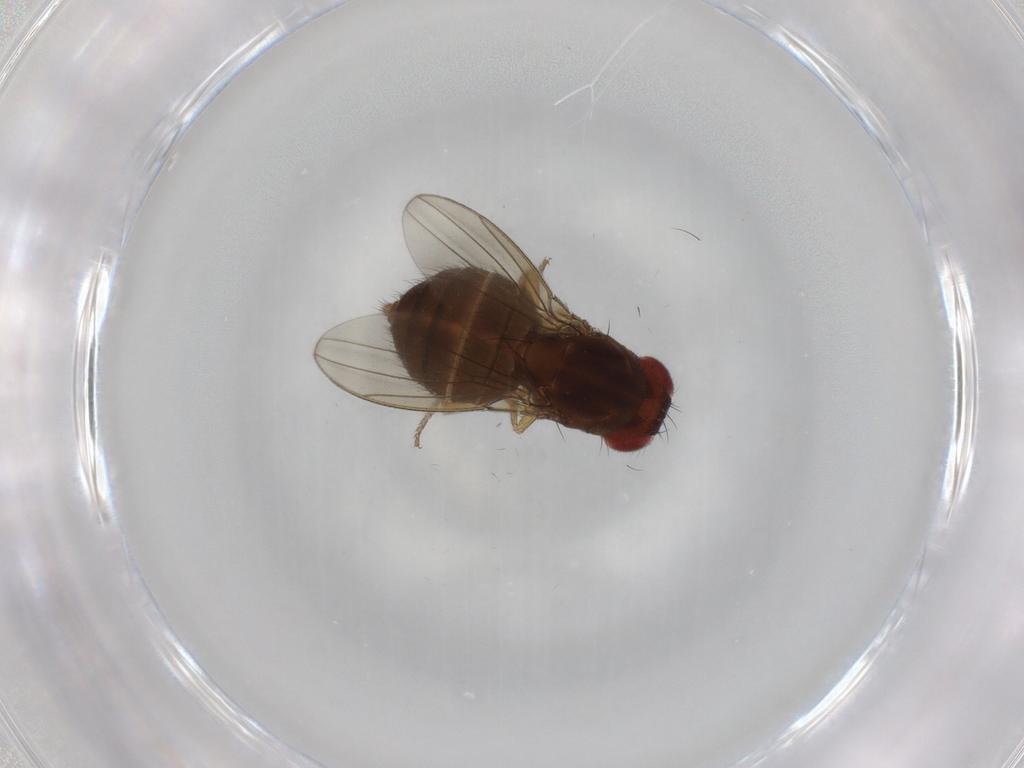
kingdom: Animalia
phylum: Arthropoda
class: Insecta
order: Diptera
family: Drosophilidae
